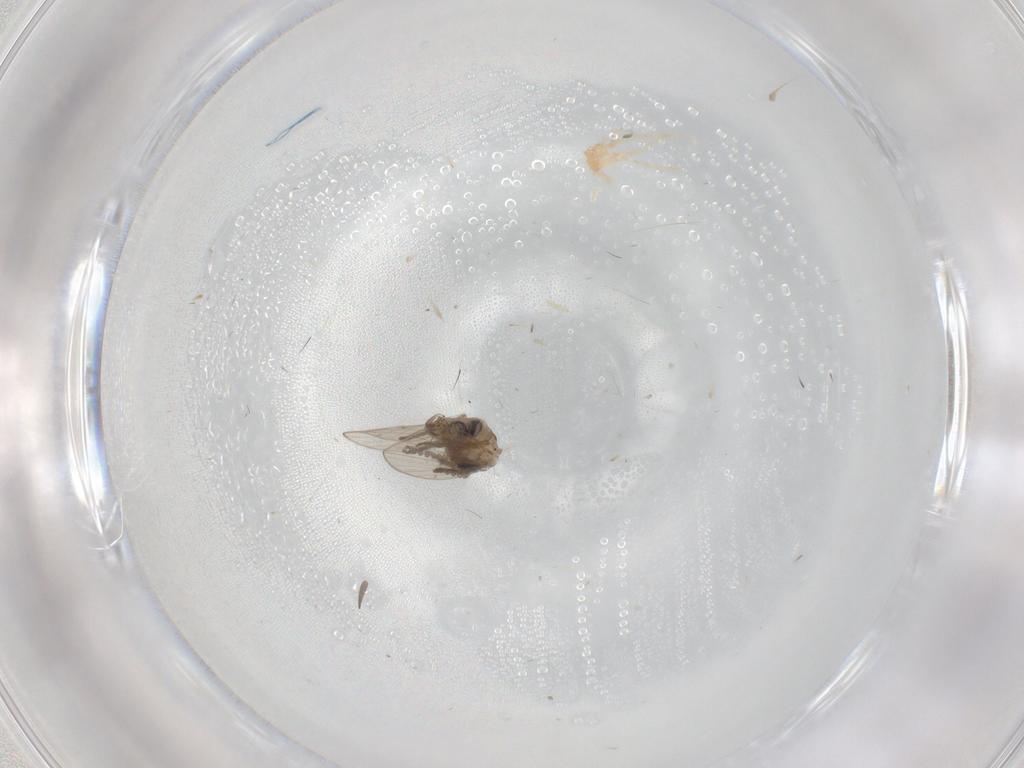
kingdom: Animalia
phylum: Arthropoda
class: Insecta
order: Diptera
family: Psychodidae
